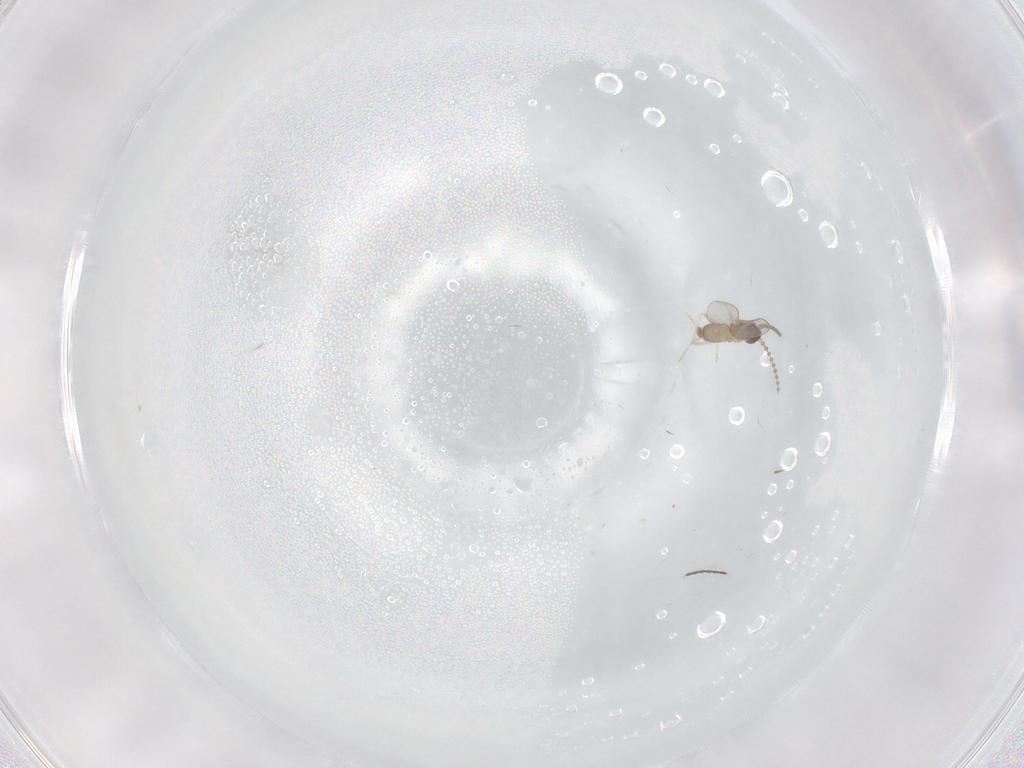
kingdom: Animalia
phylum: Arthropoda
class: Insecta
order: Diptera
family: Cecidomyiidae
